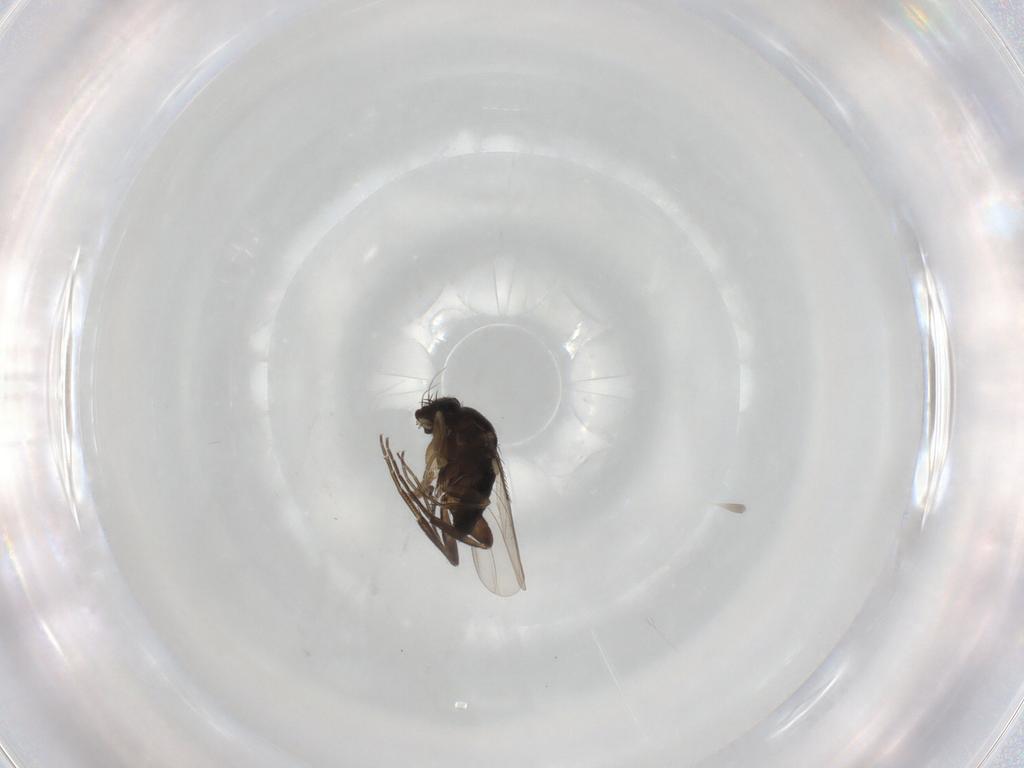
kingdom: Animalia
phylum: Arthropoda
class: Insecta
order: Diptera
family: Phoridae
